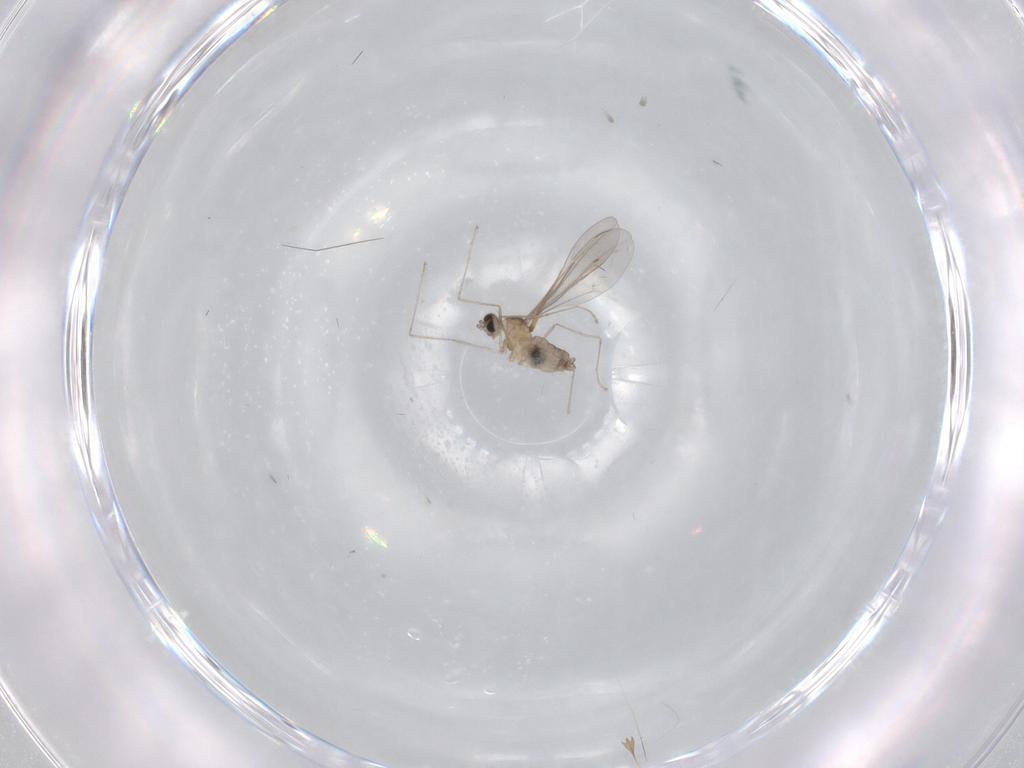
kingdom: Animalia
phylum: Arthropoda
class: Insecta
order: Diptera
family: Cecidomyiidae
